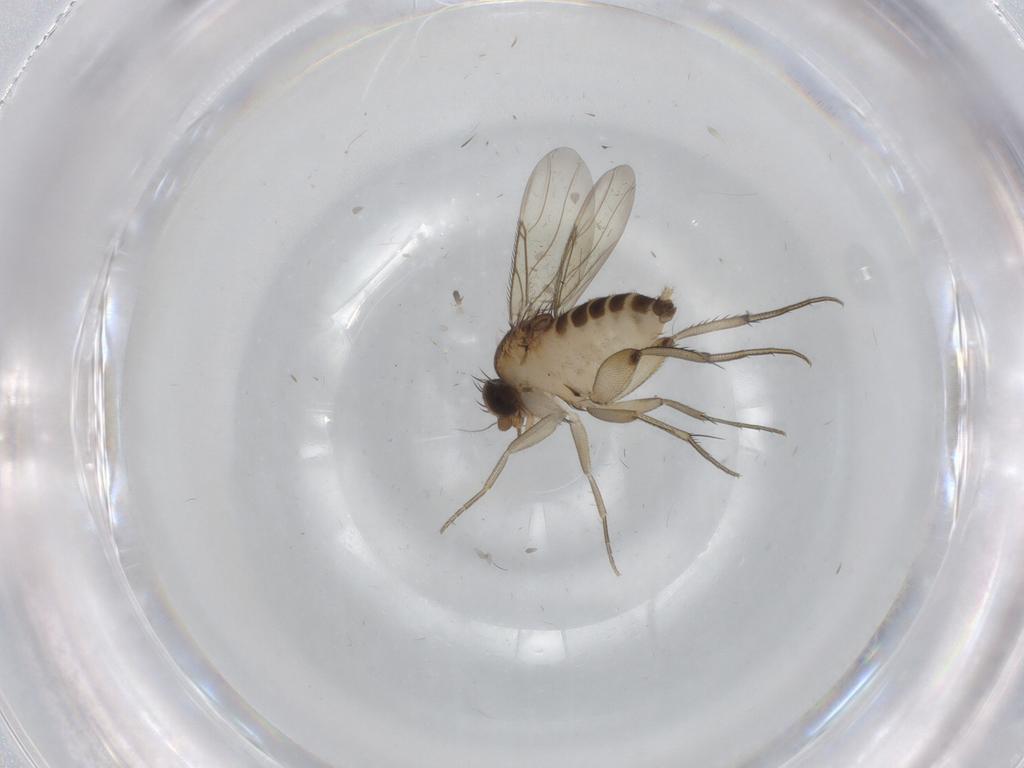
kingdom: Animalia
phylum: Arthropoda
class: Insecta
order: Diptera
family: Phoridae
